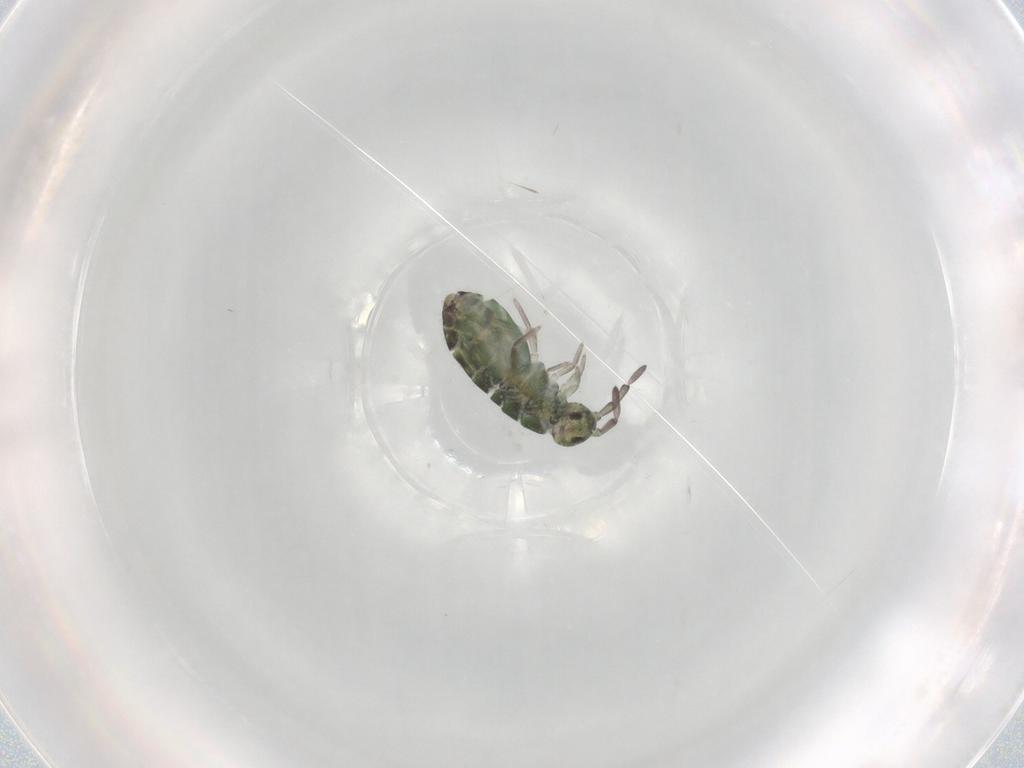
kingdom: Animalia
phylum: Arthropoda
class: Collembola
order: Entomobryomorpha
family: Isotomidae
